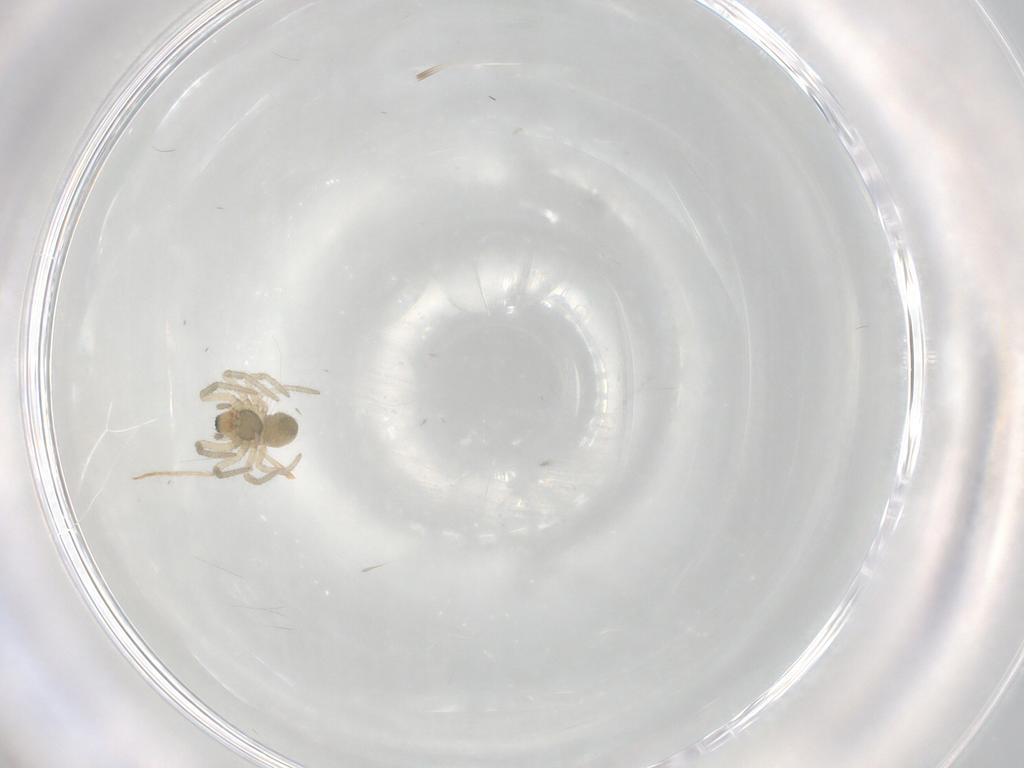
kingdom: Animalia
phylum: Arthropoda
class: Arachnida
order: Araneae
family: Linyphiidae
